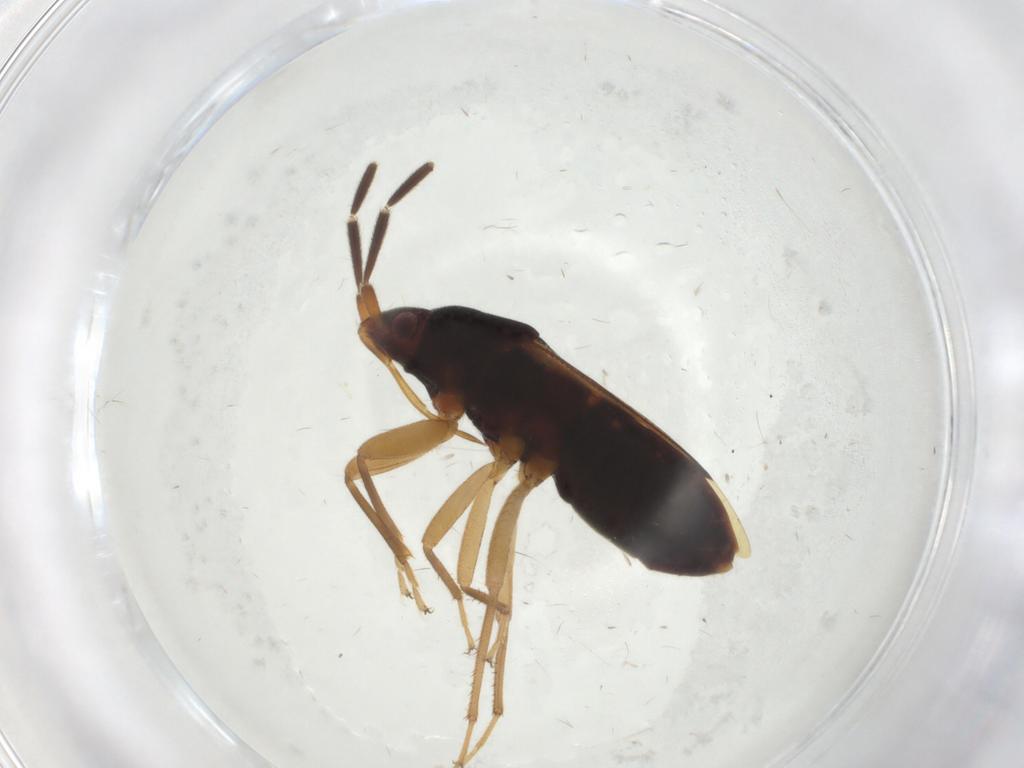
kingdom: Animalia
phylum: Arthropoda
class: Insecta
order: Hemiptera
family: Rhyparochromidae
